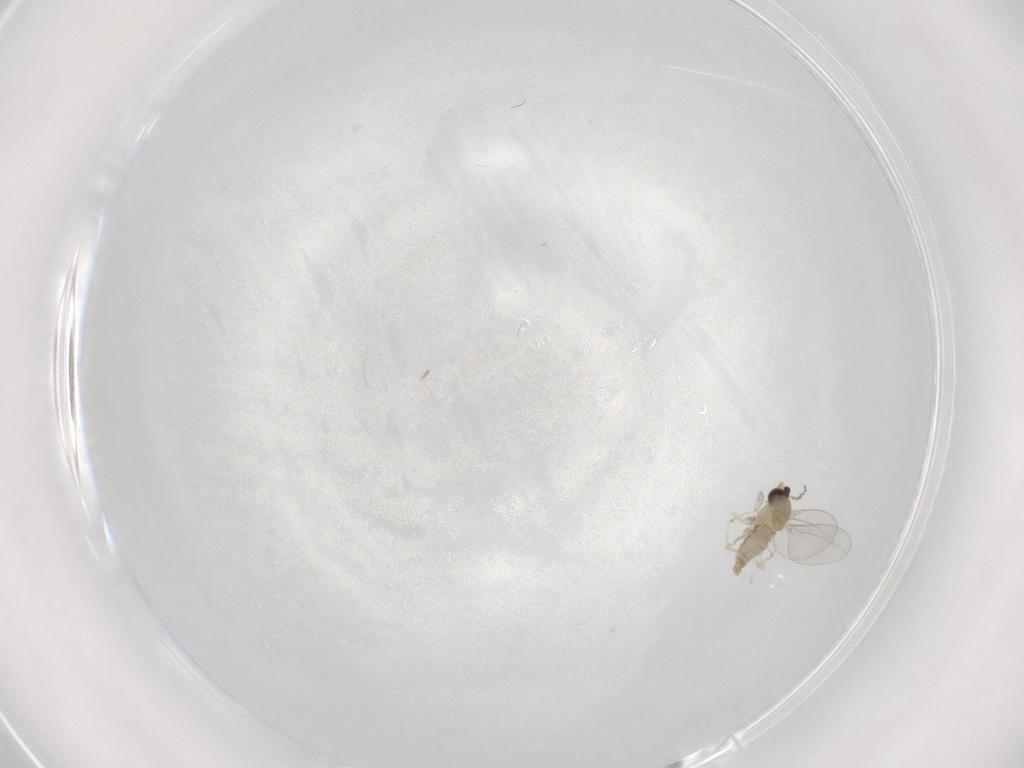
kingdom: Animalia
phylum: Arthropoda
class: Insecta
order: Diptera
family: Cecidomyiidae
